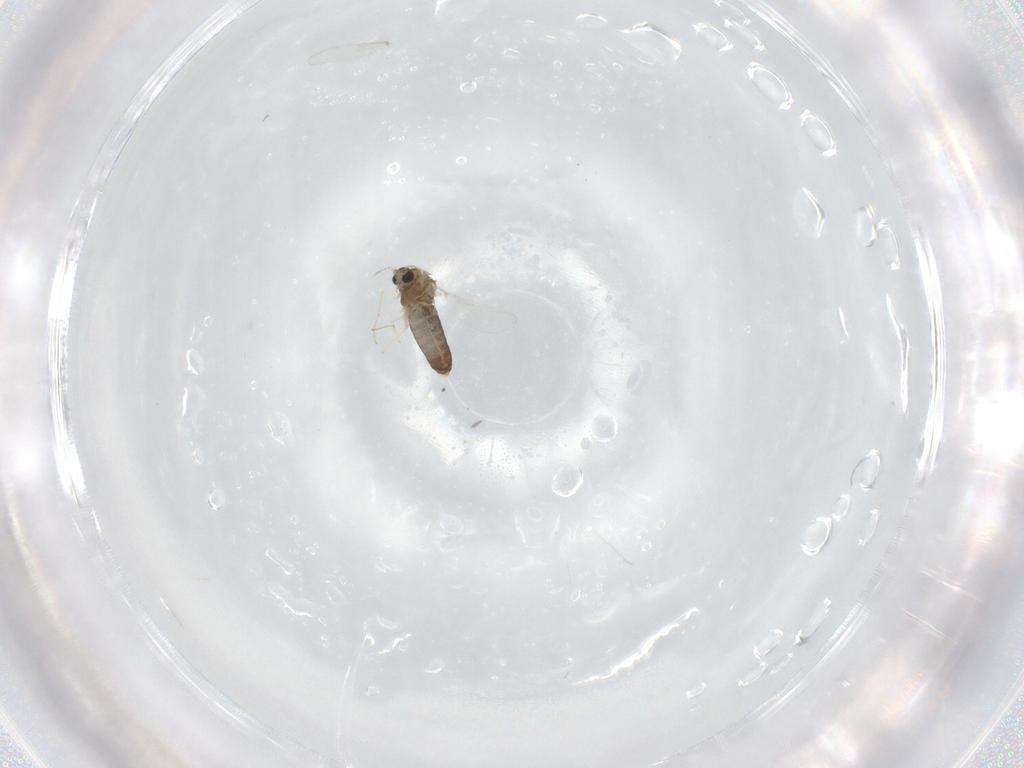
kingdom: Animalia
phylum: Arthropoda
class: Insecta
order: Diptera
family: Chironomidae
